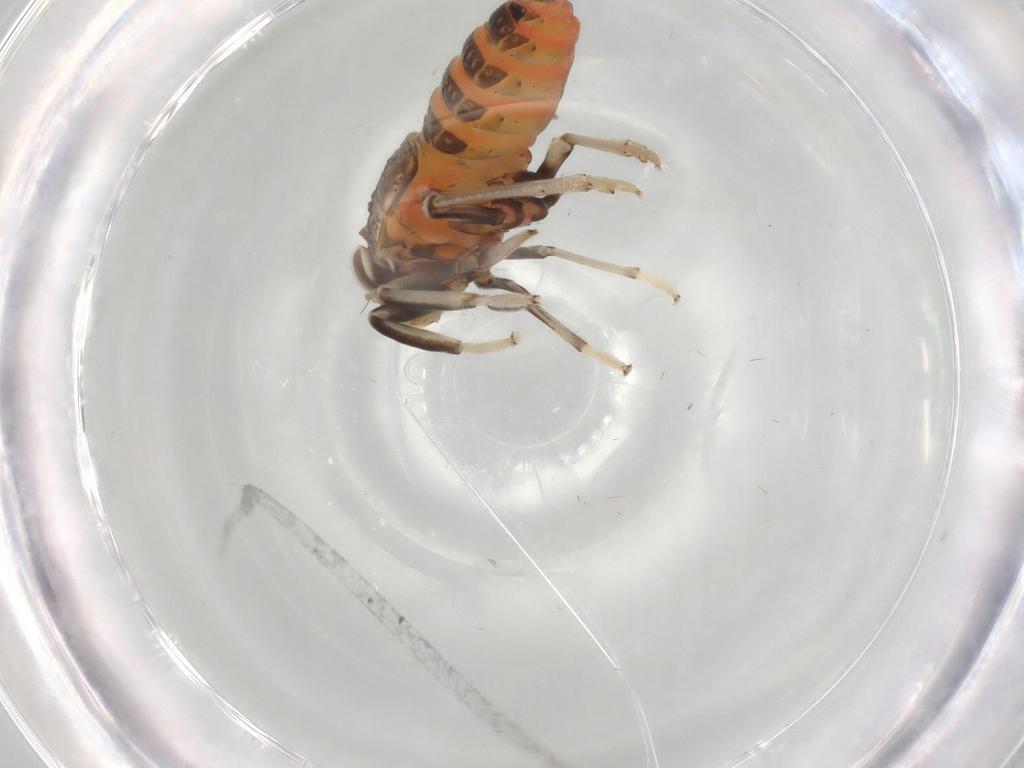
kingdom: Animalia
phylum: Arthropoda
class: Insecta
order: Hemiptera
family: Issidae
